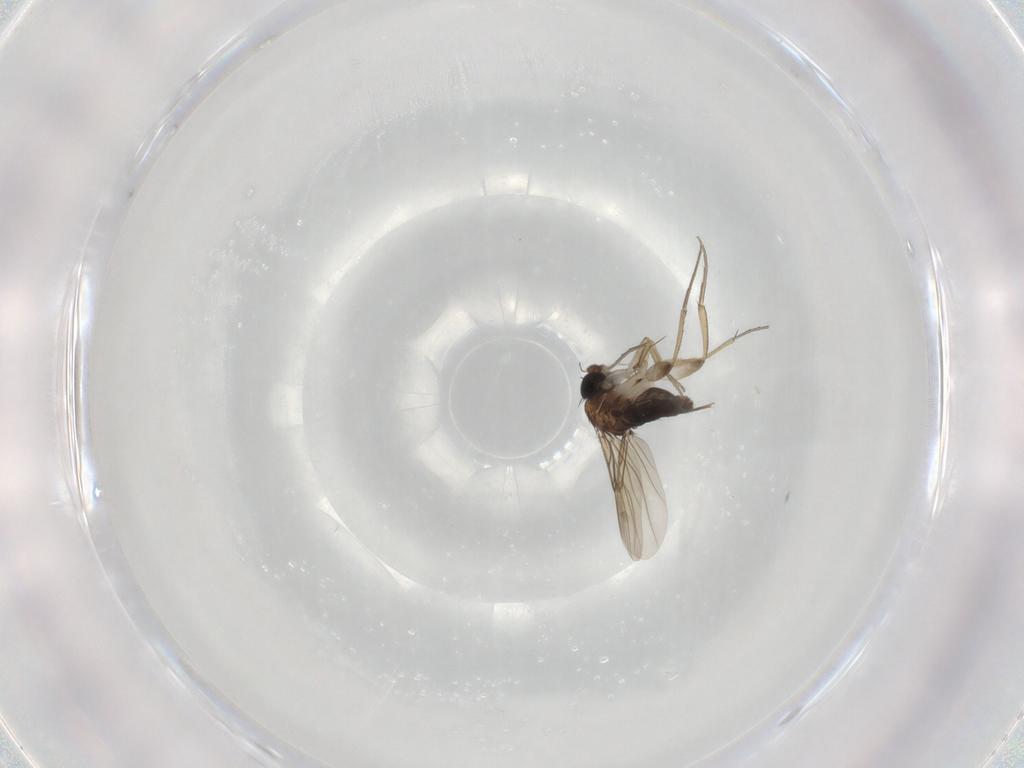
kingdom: Animalia
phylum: Arthropoda
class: Insecta
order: Diptera
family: Phoridae
